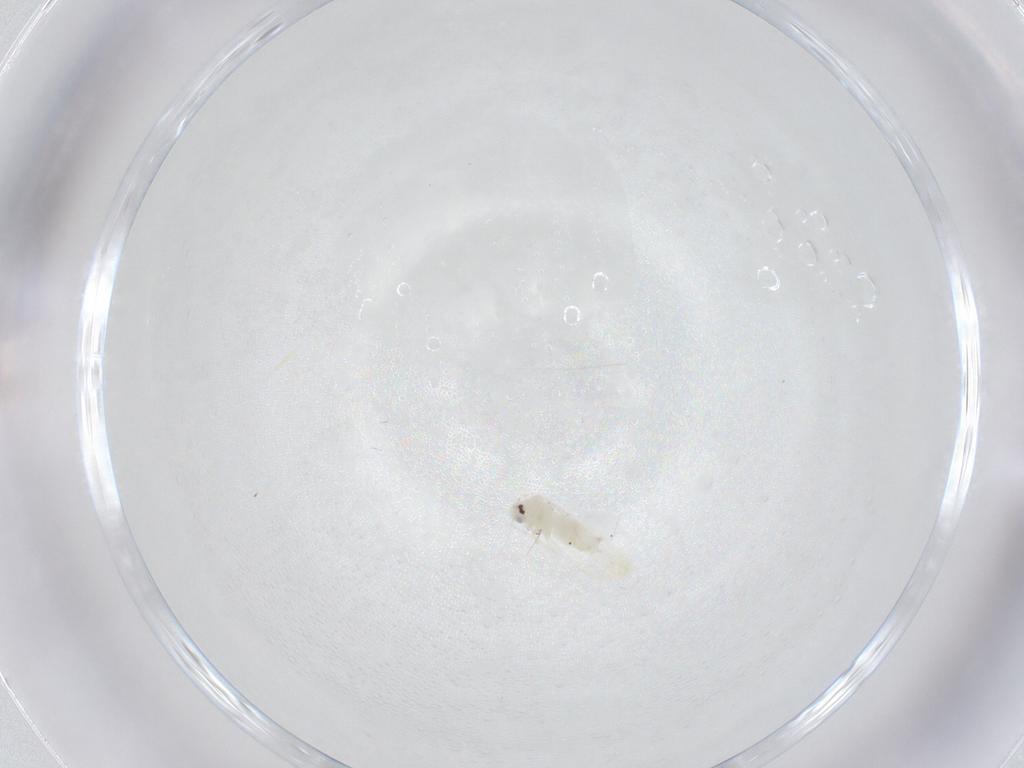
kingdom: Animalia
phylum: Arthropoda
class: Insecta
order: Hemiptera
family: Aleyrodidae
